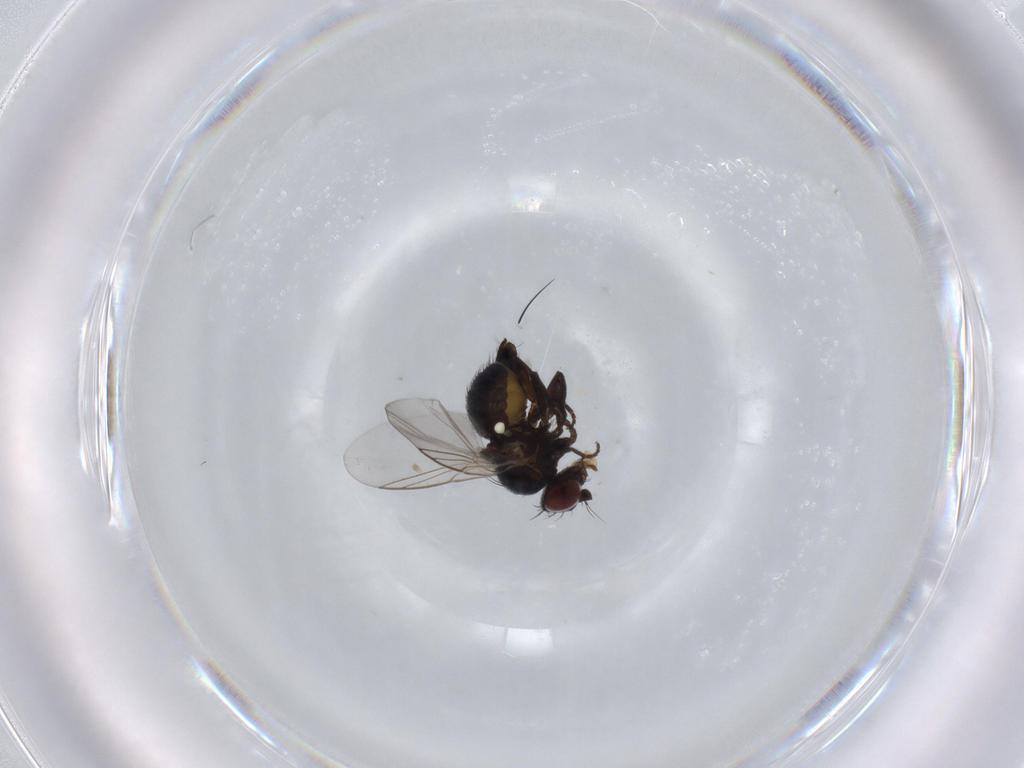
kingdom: Animalia
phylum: Arthropoda
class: Insecta
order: Diptera
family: Agromyzidae
